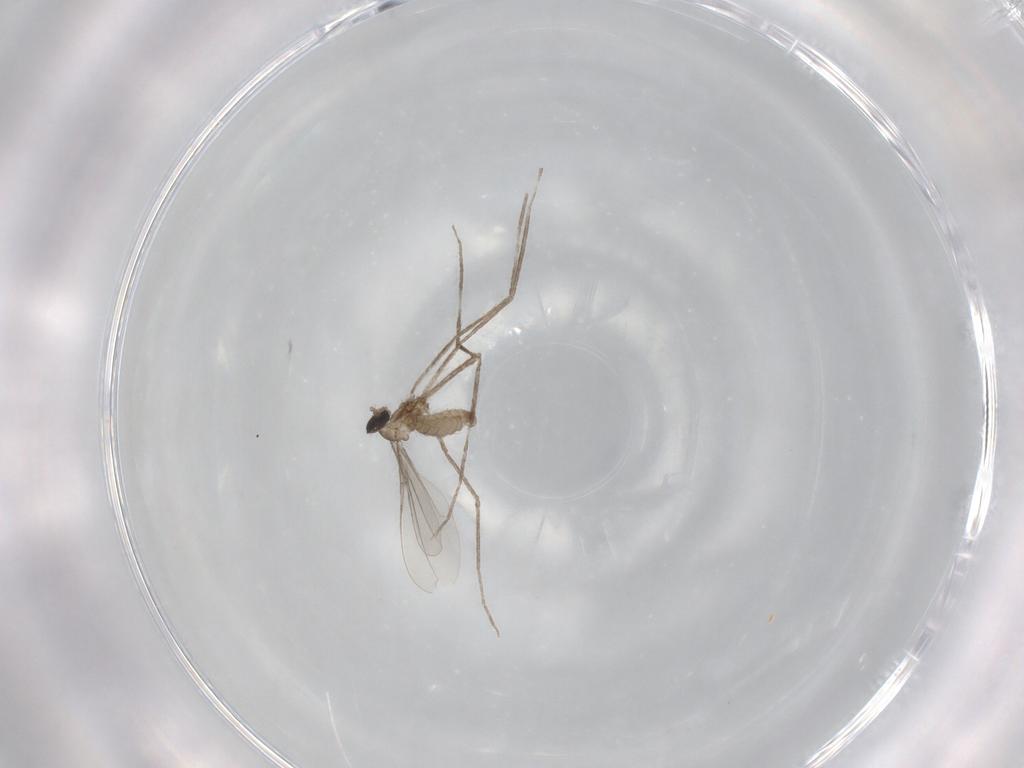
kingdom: Animalia
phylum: Arthropoda
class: Insecta
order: Diptera
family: Cecidomyiidae
